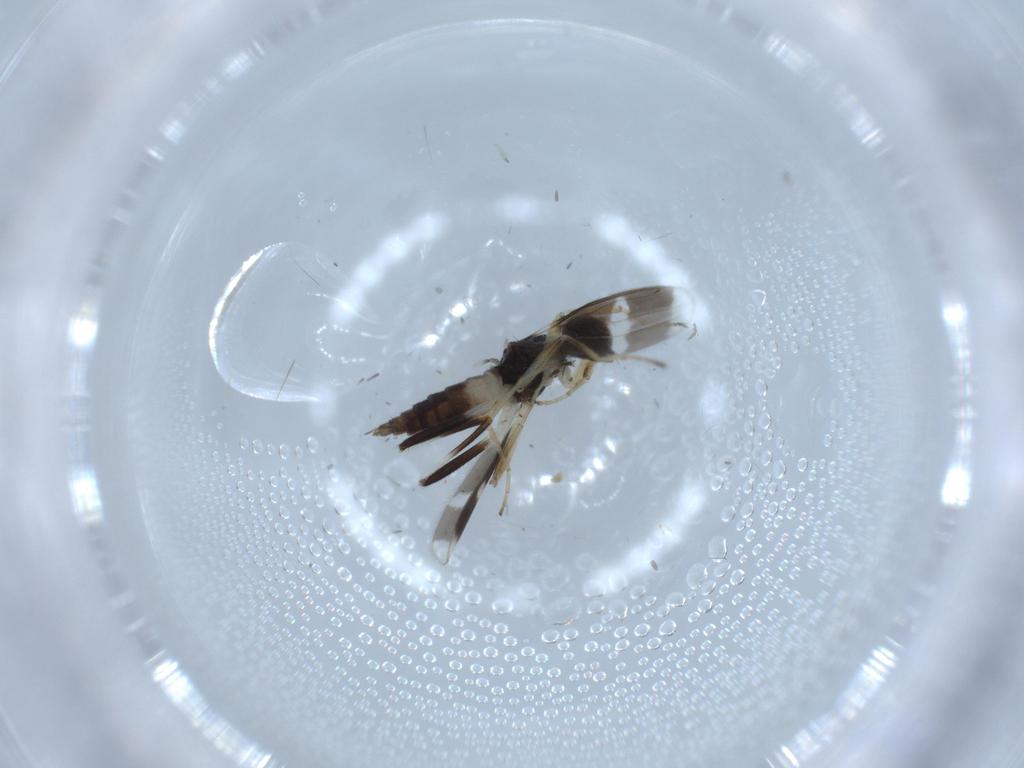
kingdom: Animalia
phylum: Arthropoda
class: Insecta
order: Diptera
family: Hybotidae
